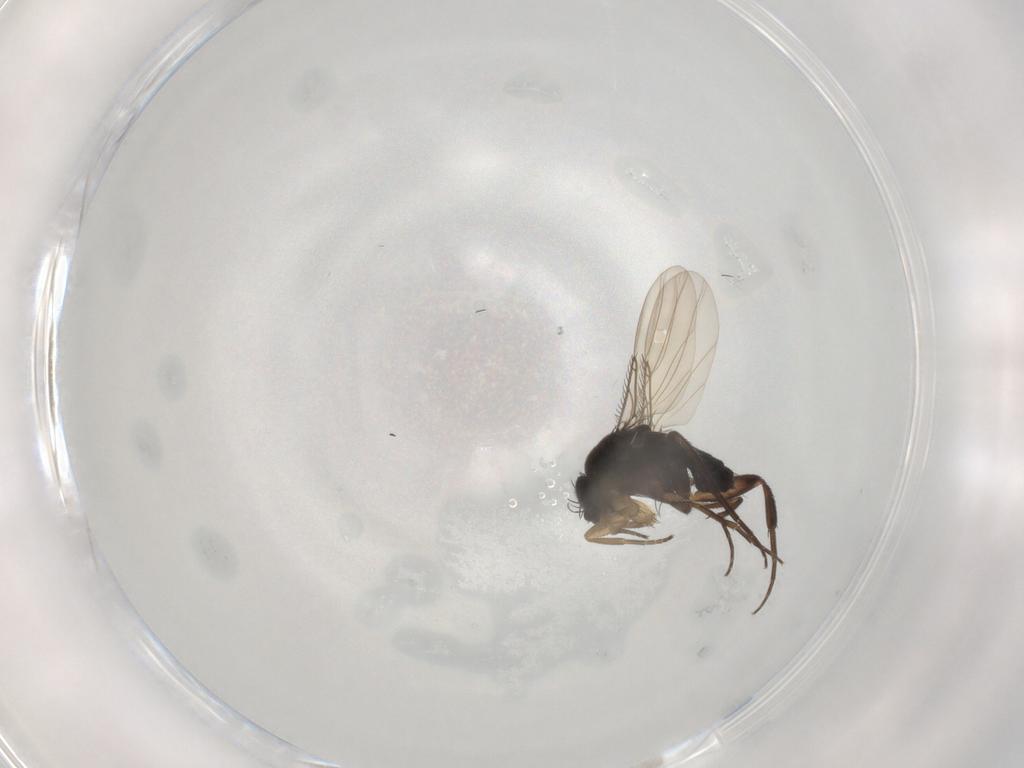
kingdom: Animalia
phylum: Arthropoda
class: Insecta
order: Diptera
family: Phoridae
